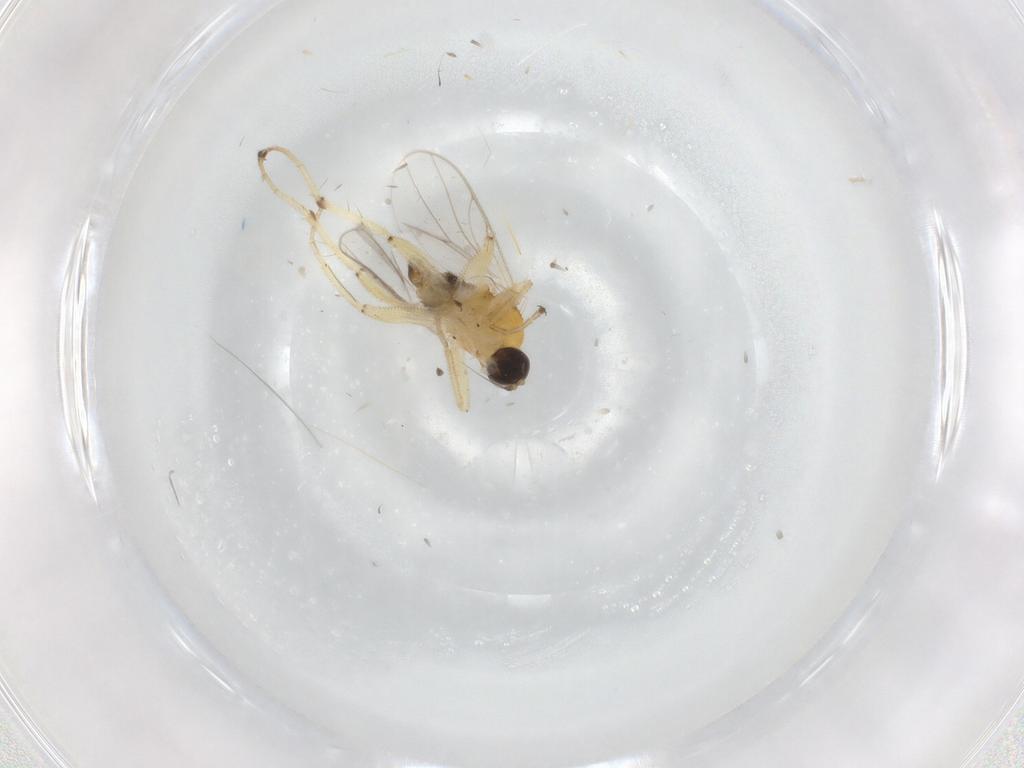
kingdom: Animalia
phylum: Arthropoda
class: Insecta
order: Diptera
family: Hybotidae
